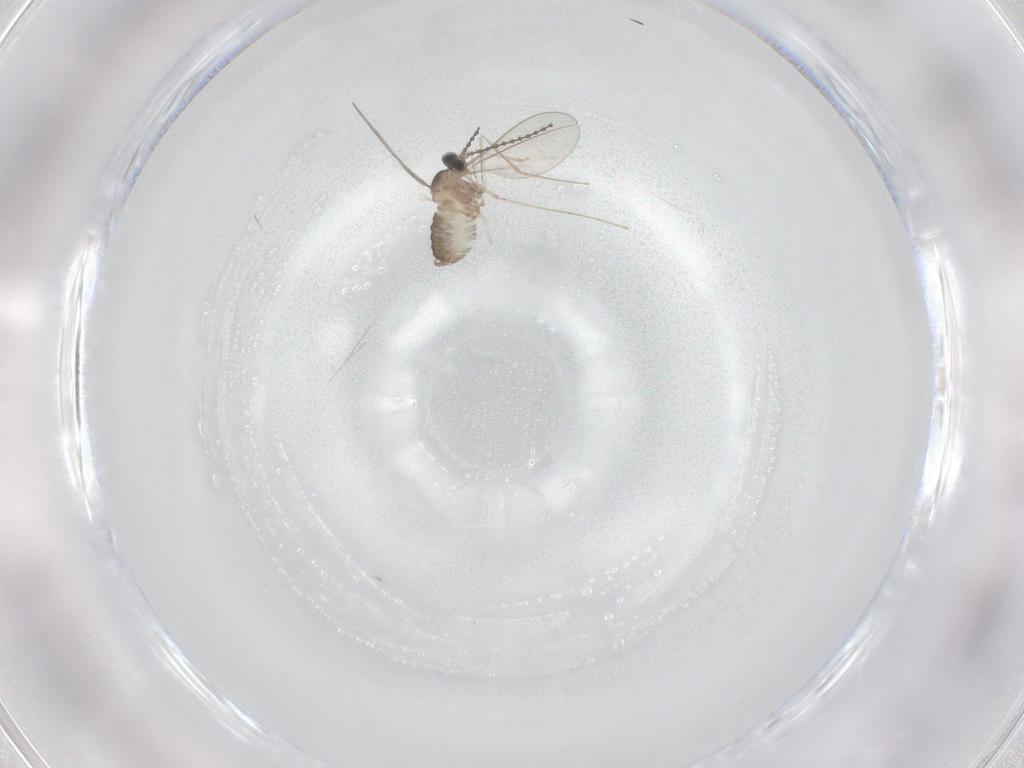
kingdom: Animalia
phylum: Arthropoda
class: Insecta
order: Diptera
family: Cecidomyiidae
